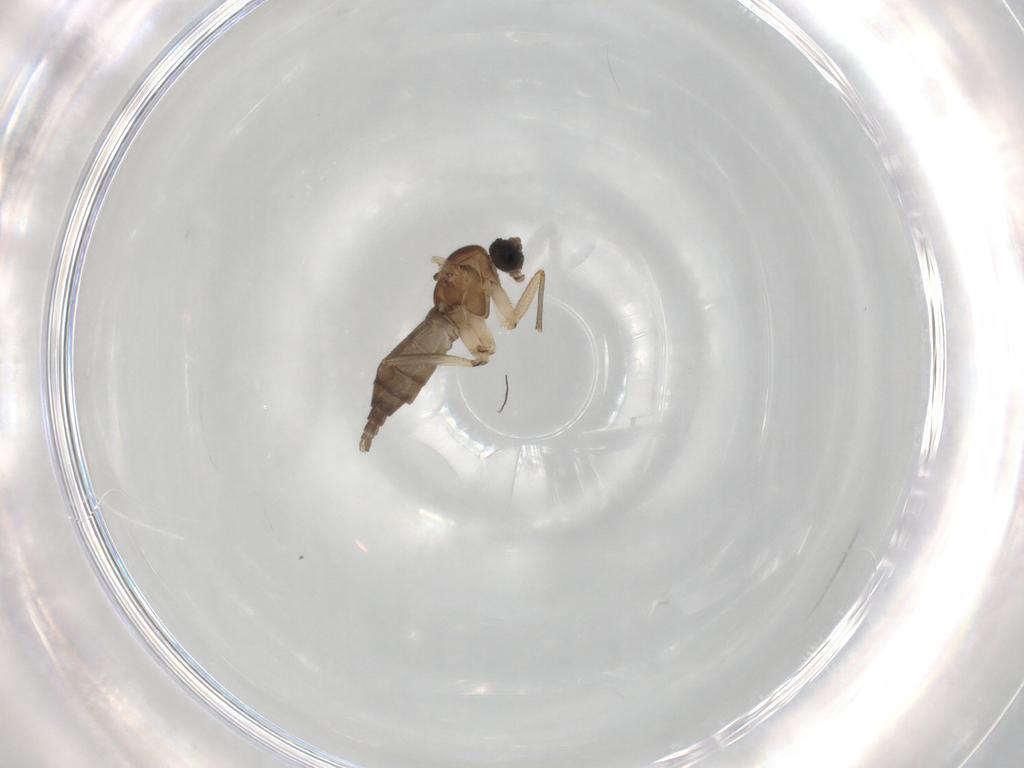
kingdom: Animalia
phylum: Arthropoda
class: Insecta
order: Diptera
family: Sciaridae
